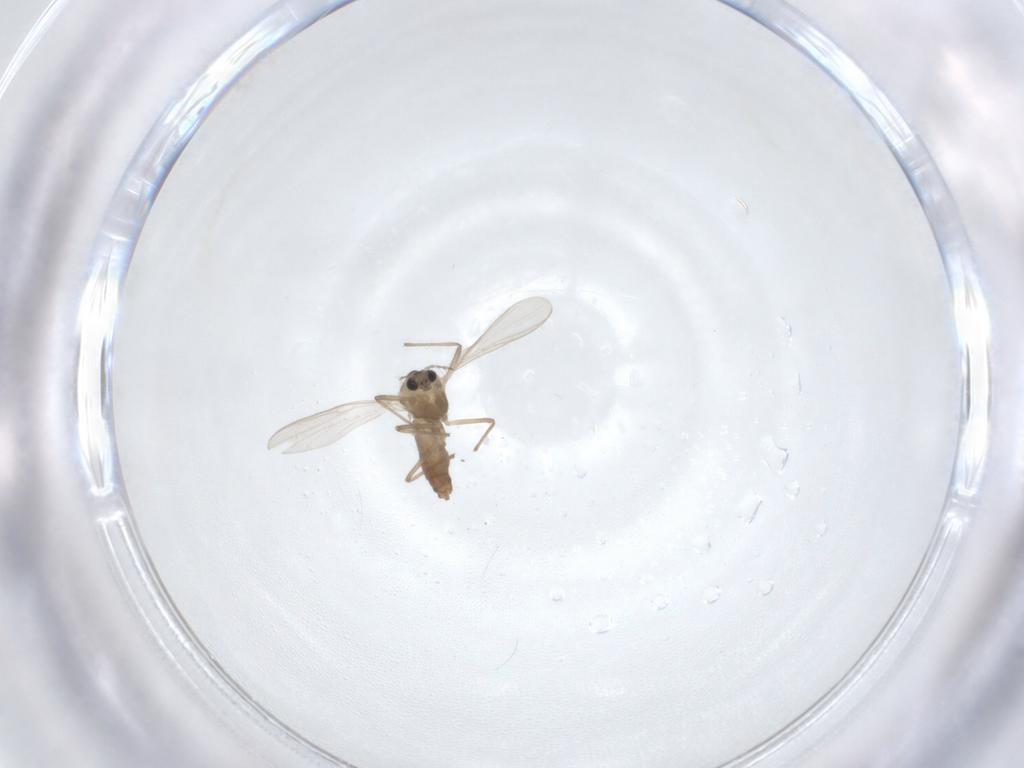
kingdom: Animalia
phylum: Arthropoda
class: Insecta
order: Diptera
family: Chironomidae
